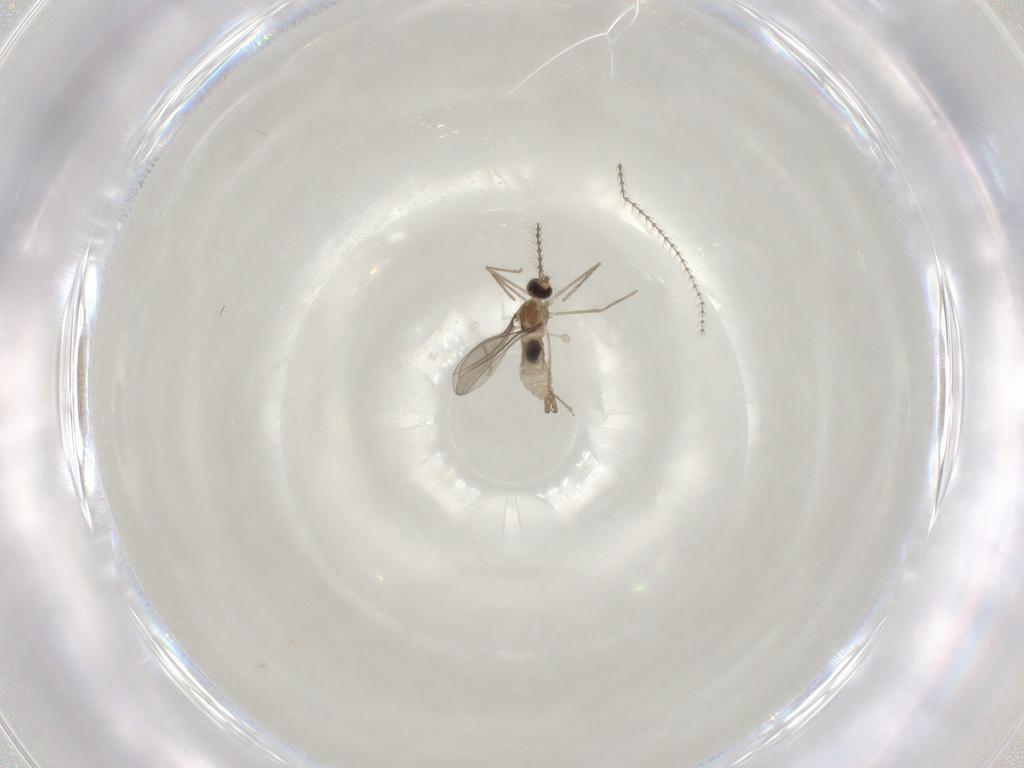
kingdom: Animalia
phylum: Arthropoda
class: Insecta
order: Diptera
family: Cecidomyiidae
